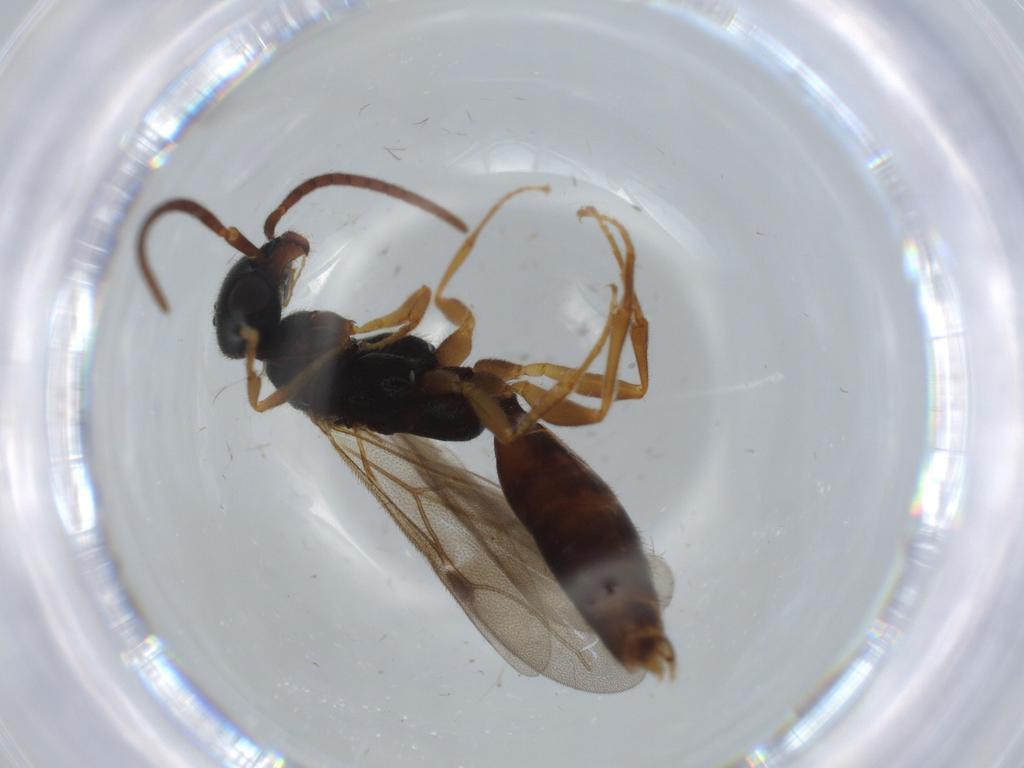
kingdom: Animalia
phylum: Arthropoda
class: Insecta
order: Hymenoptera
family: Bethylidae
